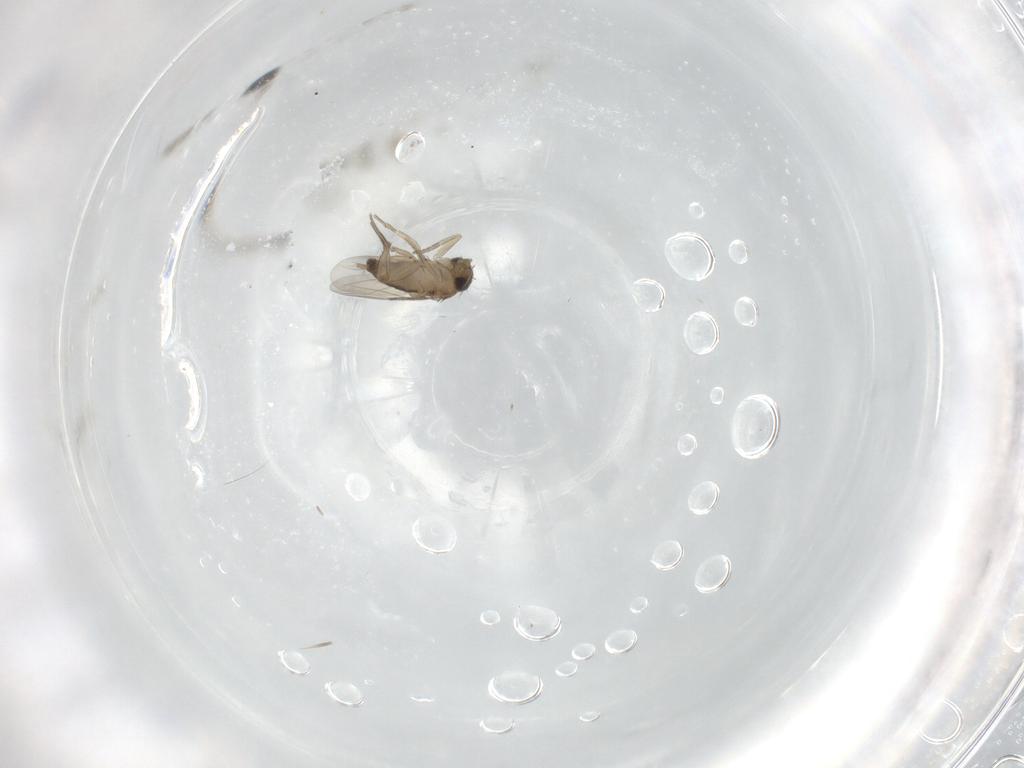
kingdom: Animalia
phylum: Arthropoda
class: Insecta
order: Diptera
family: Phoridae
